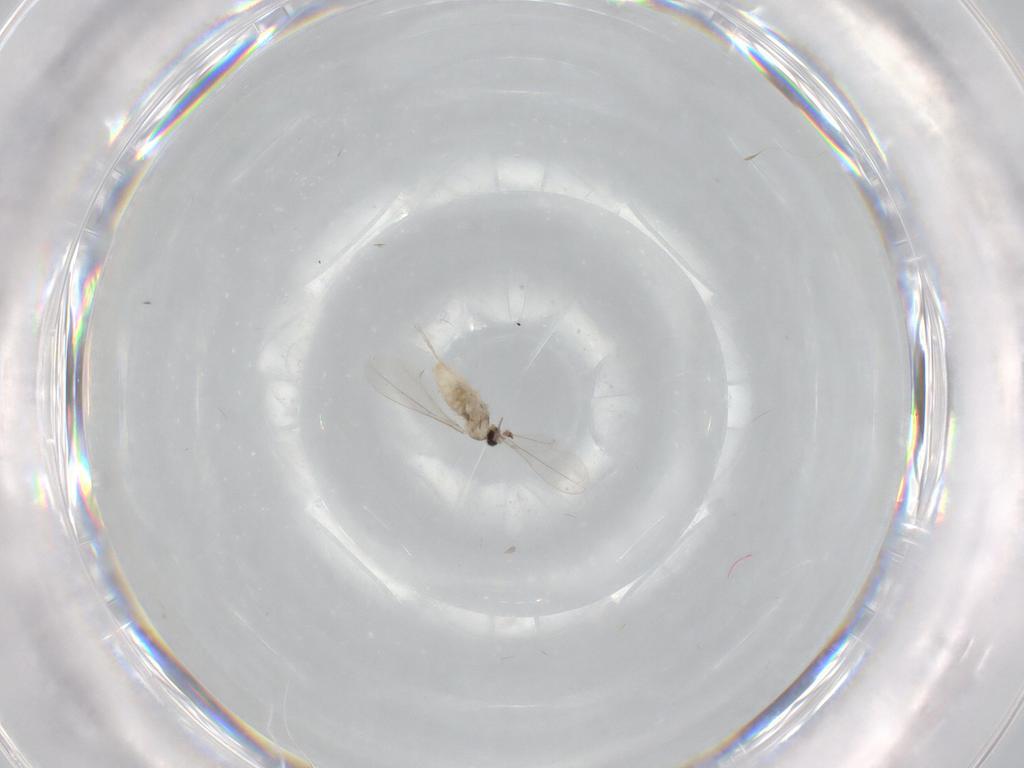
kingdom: Animalia
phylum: Arthropoda
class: Insecta
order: Diptera
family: Cecidomyiidae
